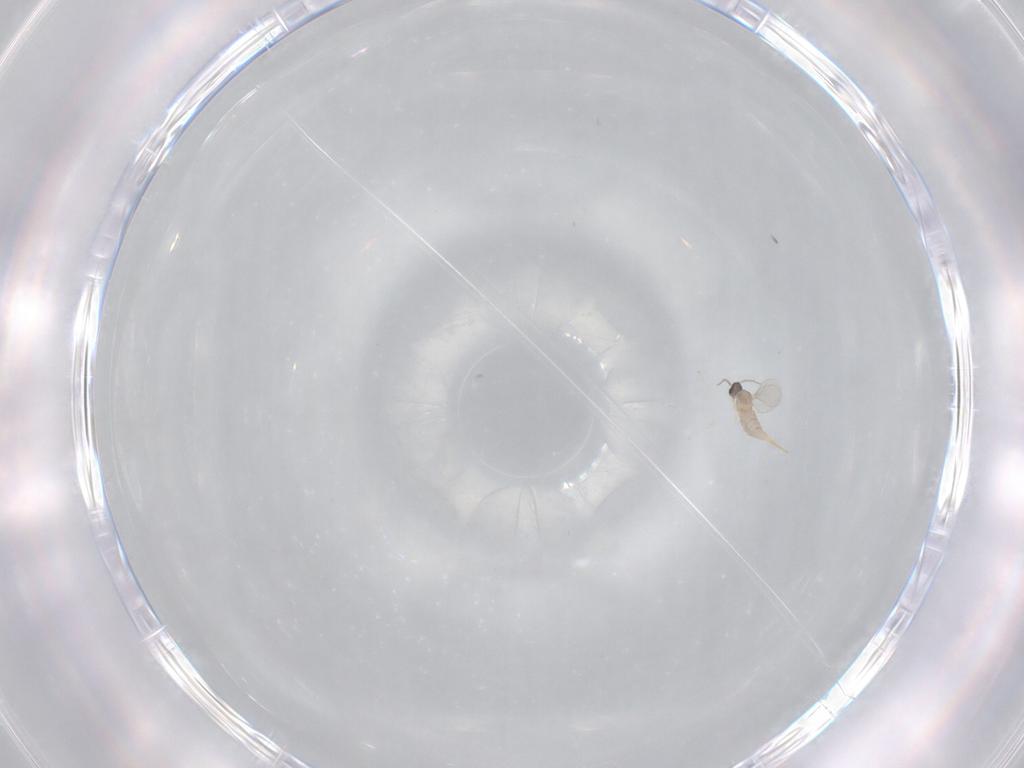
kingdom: Animalia
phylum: Arthropoda
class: Insecta
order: Diptera
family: Cecidomyiidae
